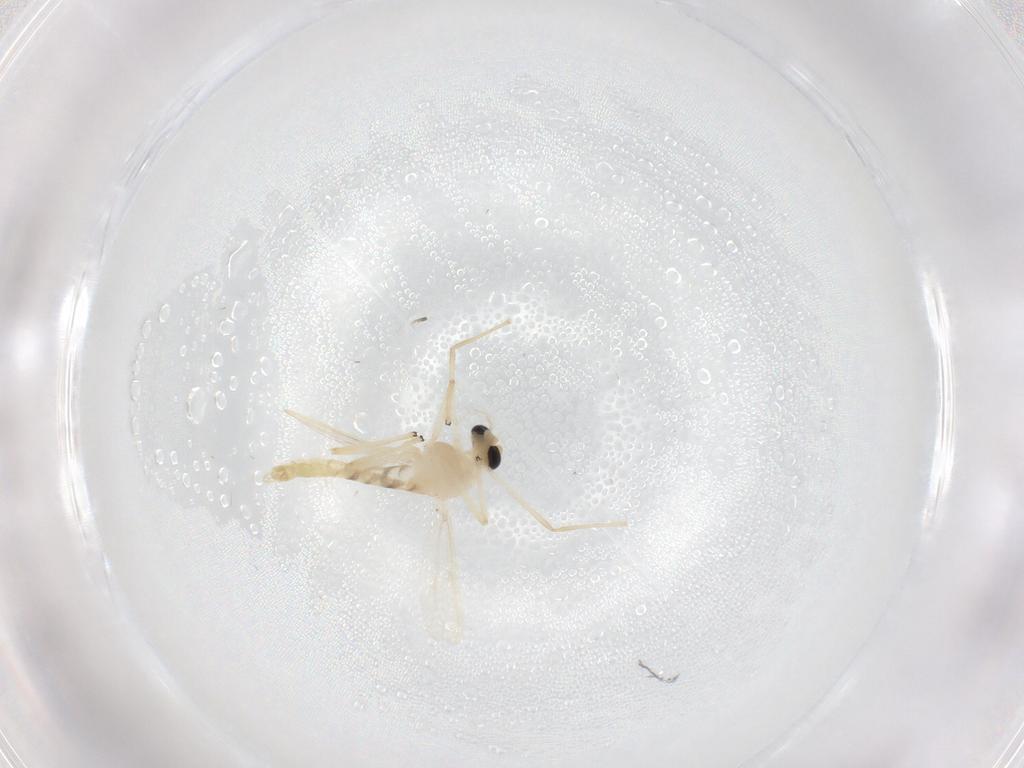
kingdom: Animalia
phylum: Arthropoda
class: Insecta
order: Diptera
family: Chironomidae
